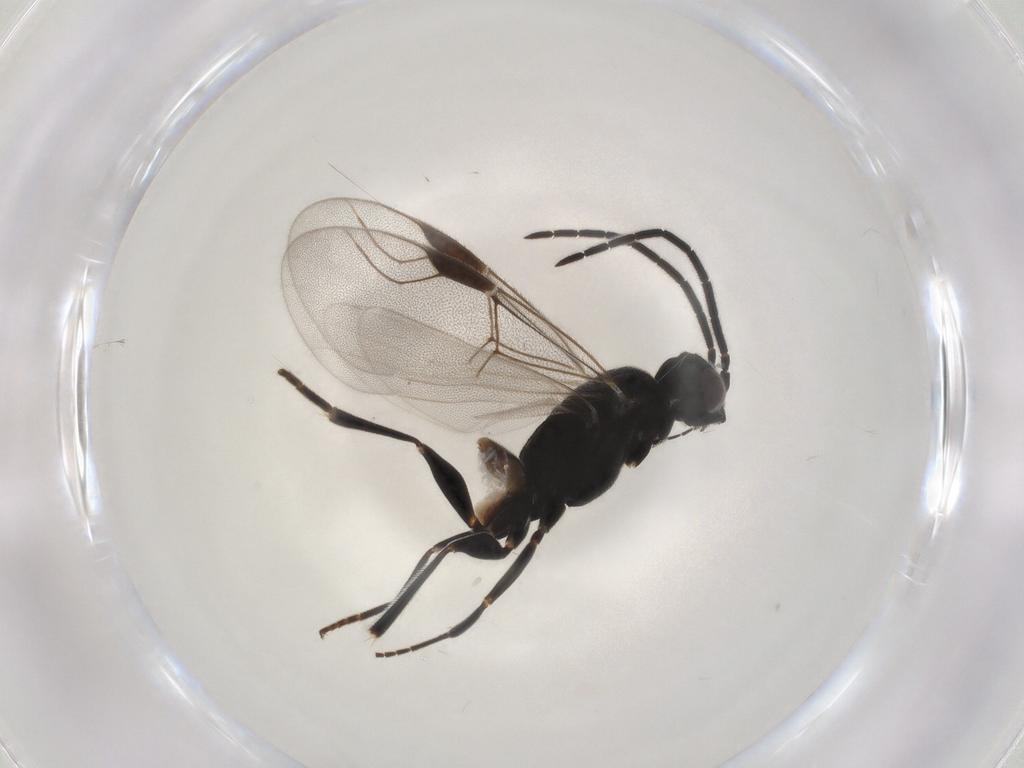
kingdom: Animalia
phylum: Arthropoda
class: Insecta
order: Hymenoptera
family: Dryinidae
